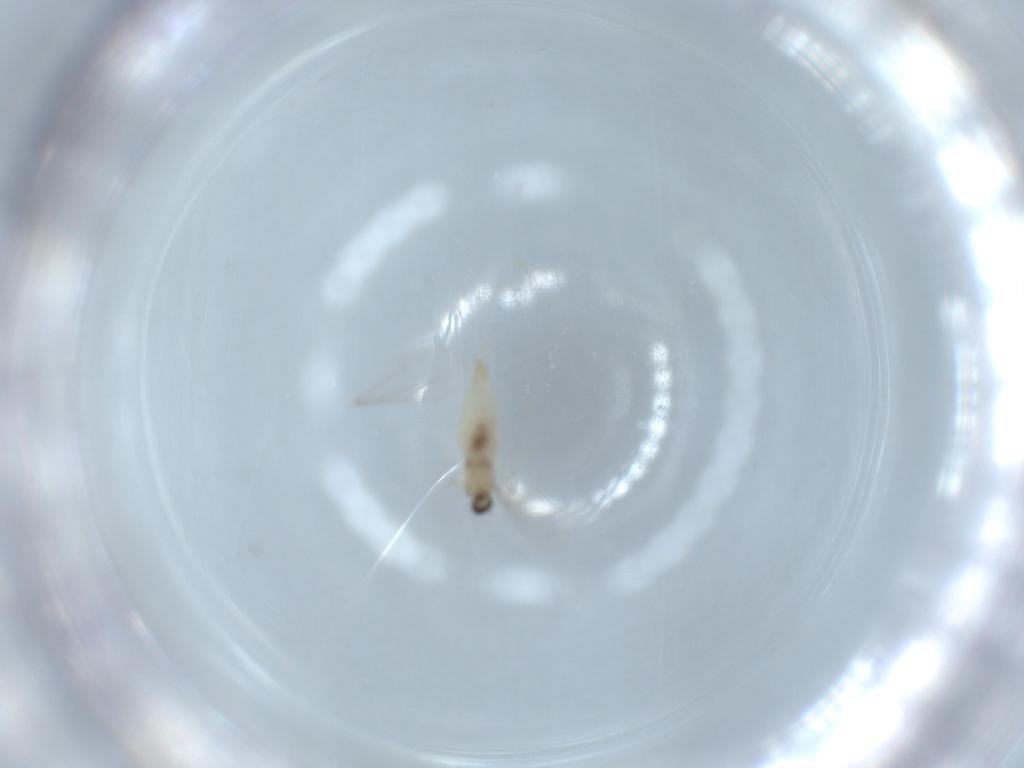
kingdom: Animalia
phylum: Arthropoda
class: Insecta
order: Diptera
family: Cecidomyiidae
